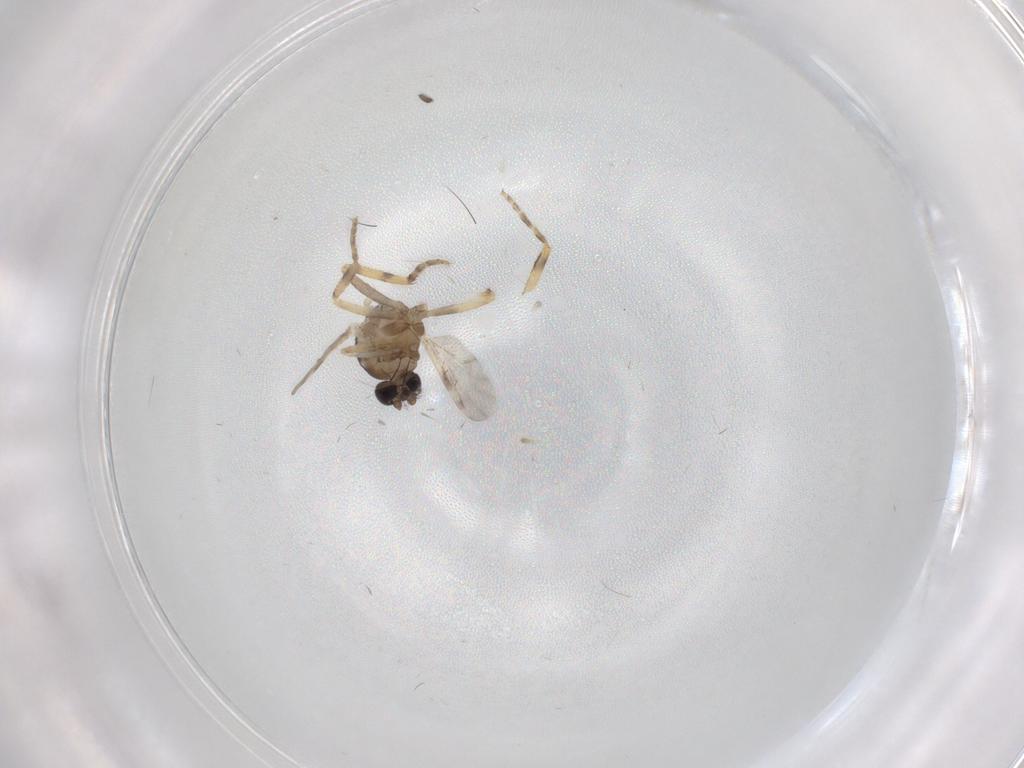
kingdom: Animalia
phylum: Arthropoda
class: Insecta
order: Diptera
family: Ceratopogonidae
